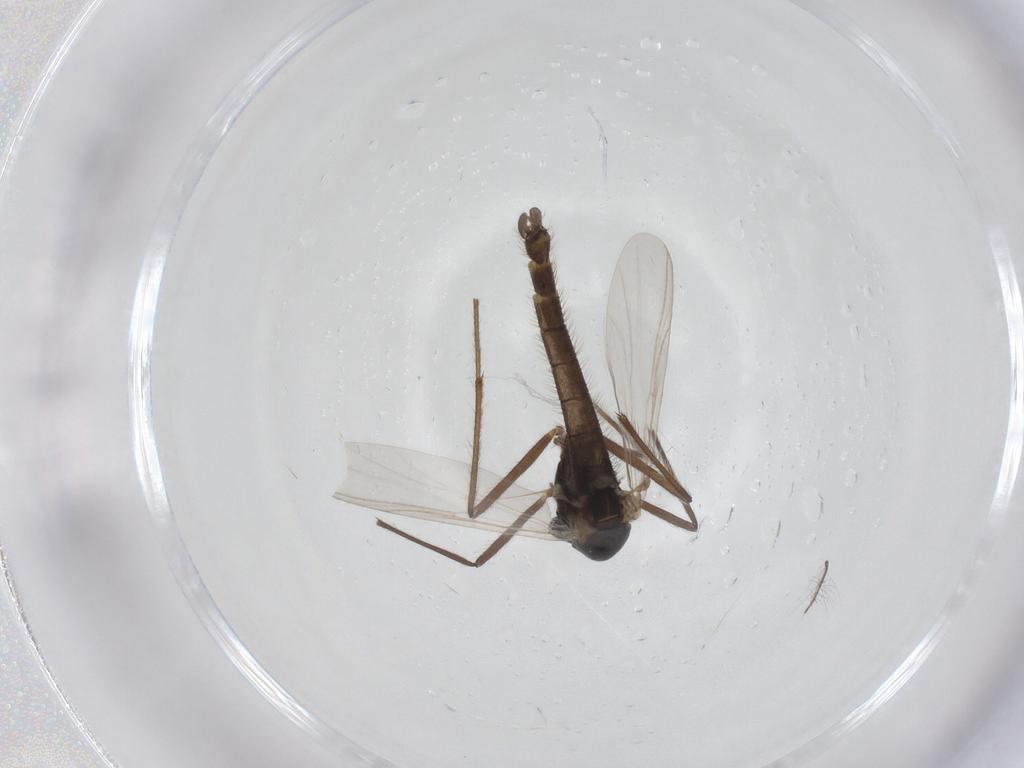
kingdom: Animalia
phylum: Arthropoda
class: Insecta
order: Diptera
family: Chironomidae
